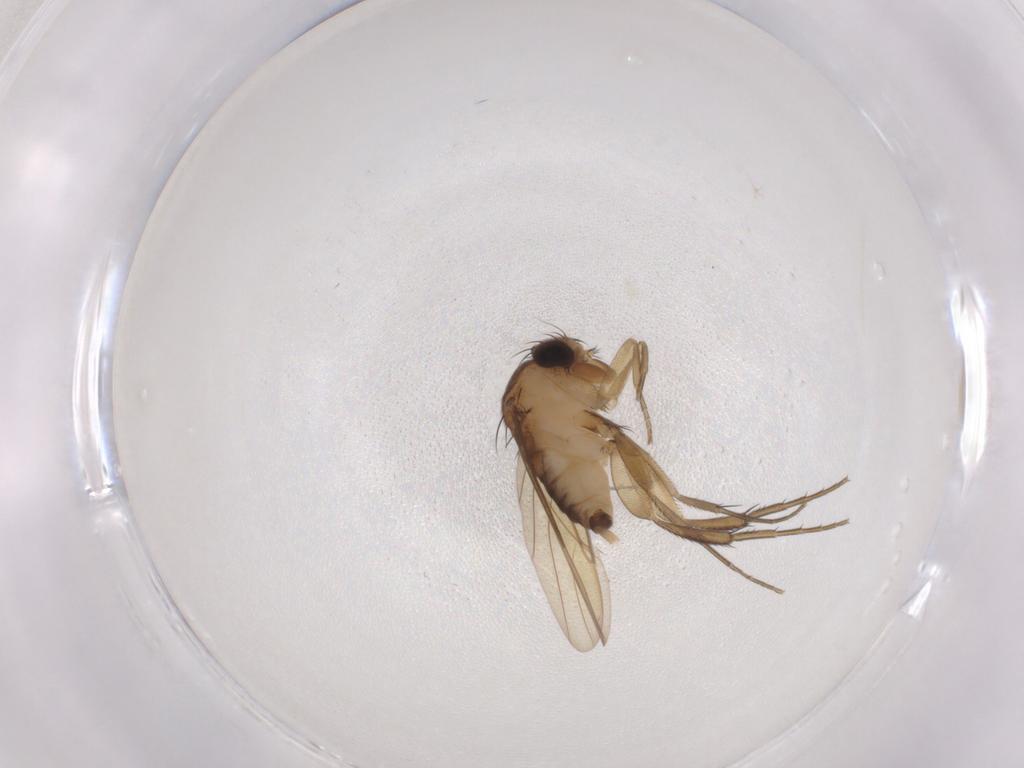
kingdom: Animalia
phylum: Arthropoda
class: Insecta
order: Diptera
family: Phoridae
